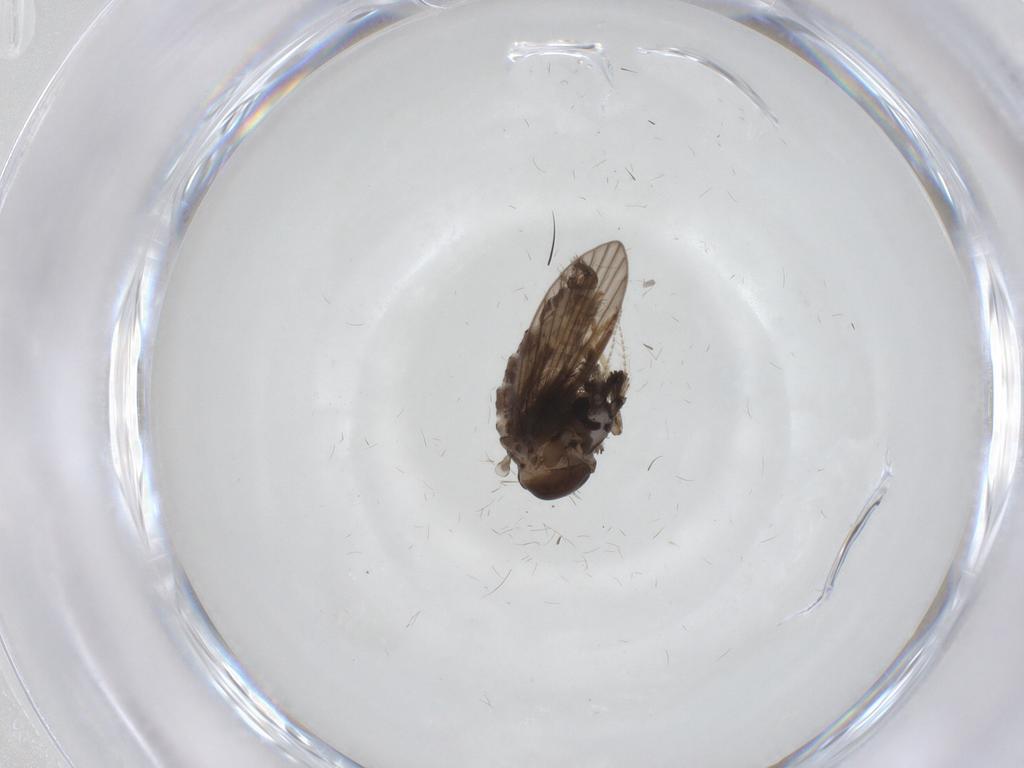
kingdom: Animalia
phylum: Arthropoda
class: Insecta
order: Diptera
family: Psychodidae
